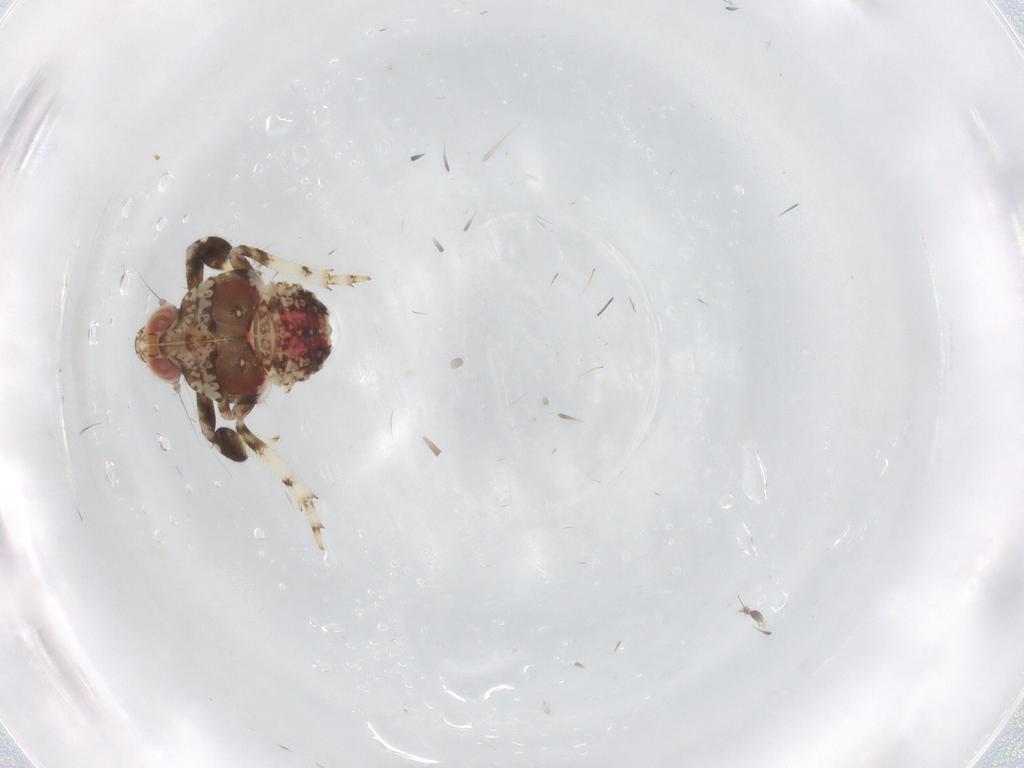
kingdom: Animalia
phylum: Arthropoda
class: Insecta
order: Hemiptera
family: Issidae
